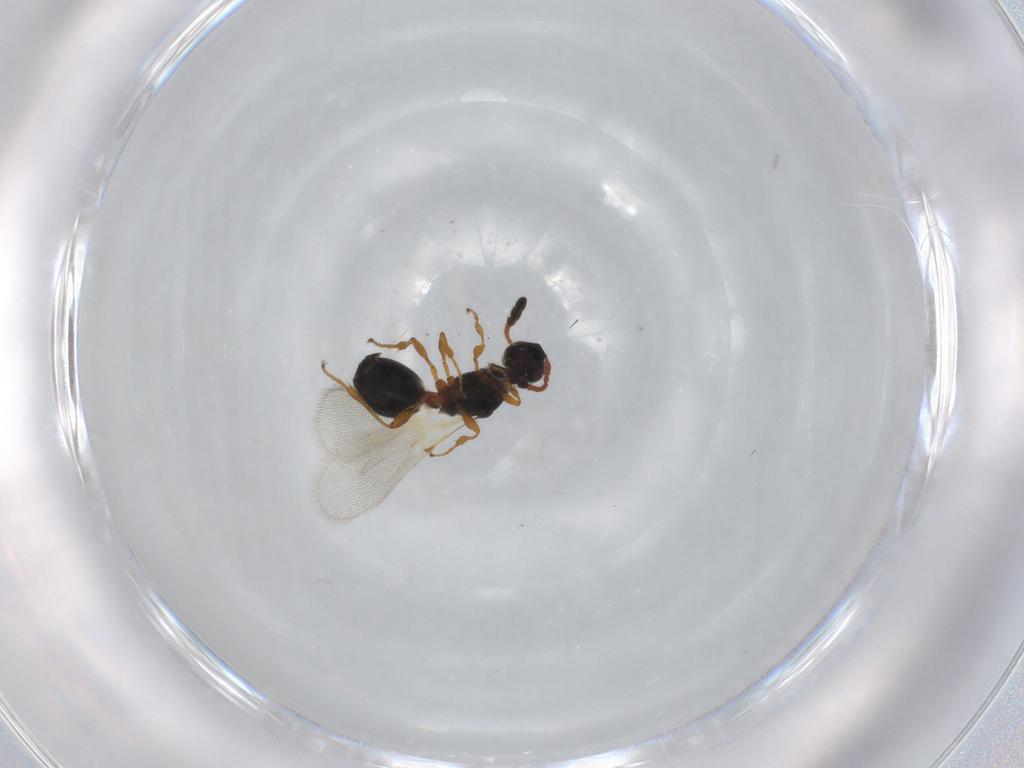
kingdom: Animalia
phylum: Arthropoda
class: Insecta
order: Hymenoptera
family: Diapriidae
